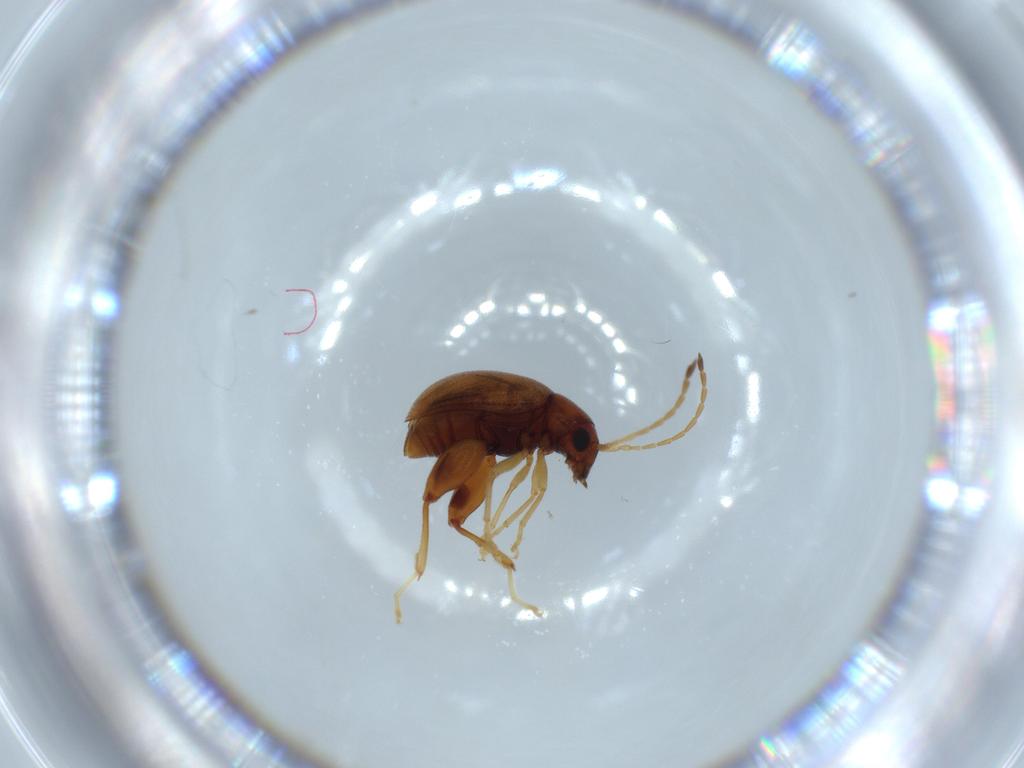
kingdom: Animalia
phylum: Arthropoda
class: Insecta
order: Coleoptera
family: Chrysomelidae
